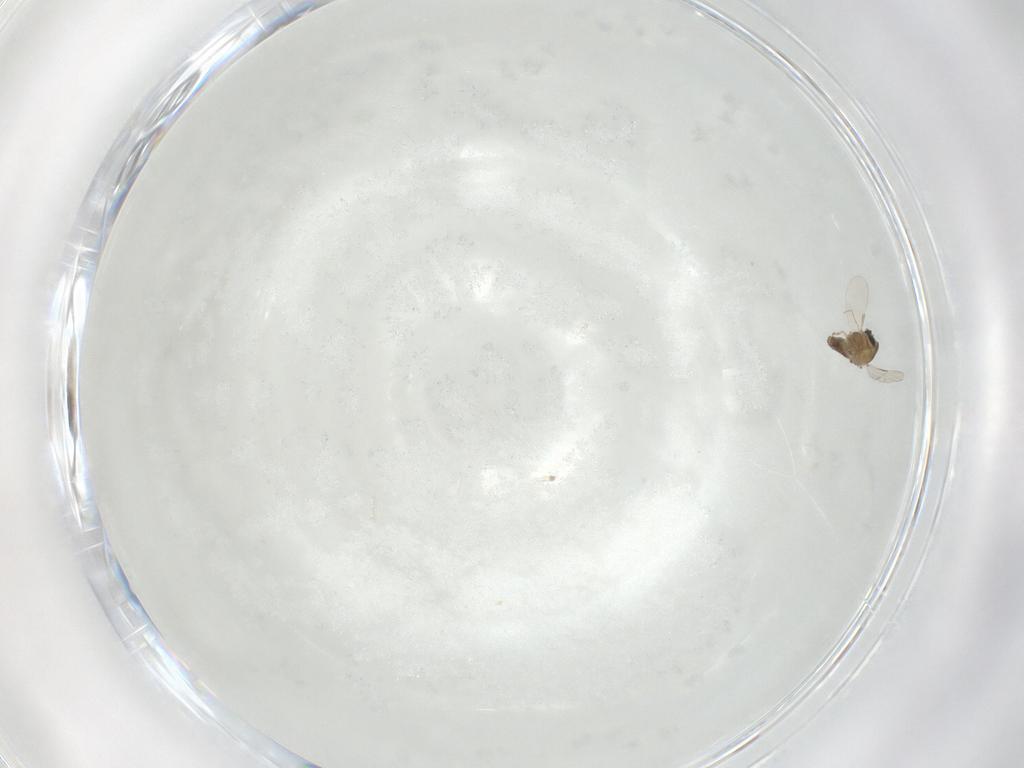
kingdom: Animalia
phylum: Arthropoda
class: Insecta
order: Diptera
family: Chironomidae
